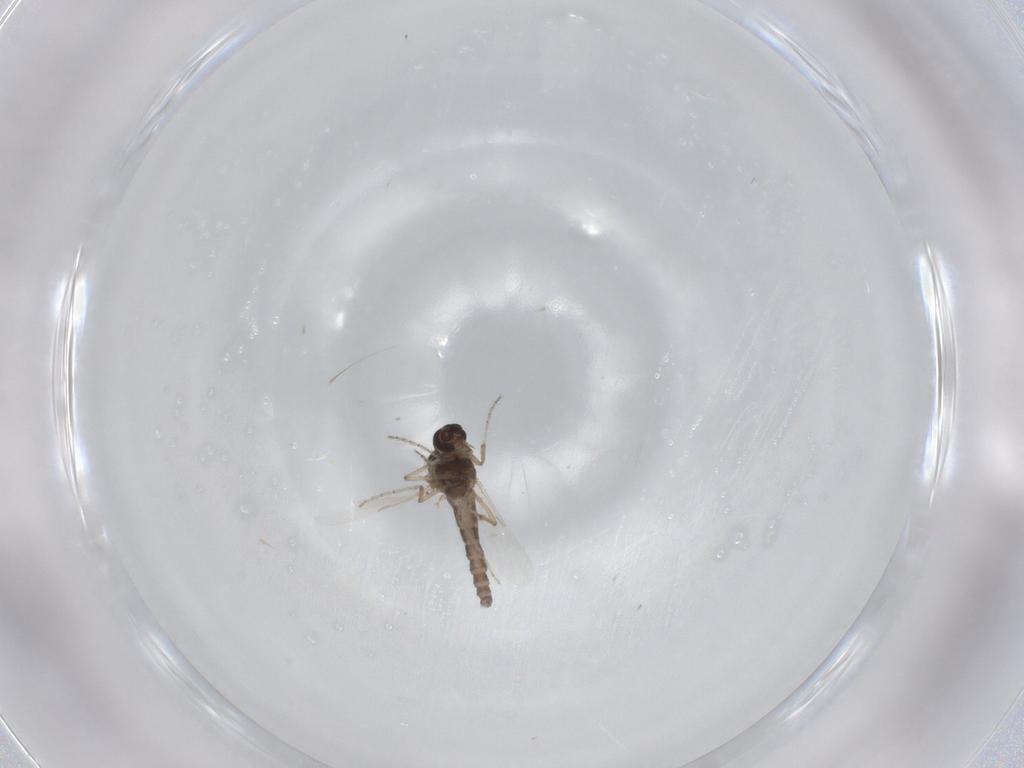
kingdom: Animalia
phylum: Arthropoda
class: Insecta
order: Diptera
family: Ceratopogonidae
